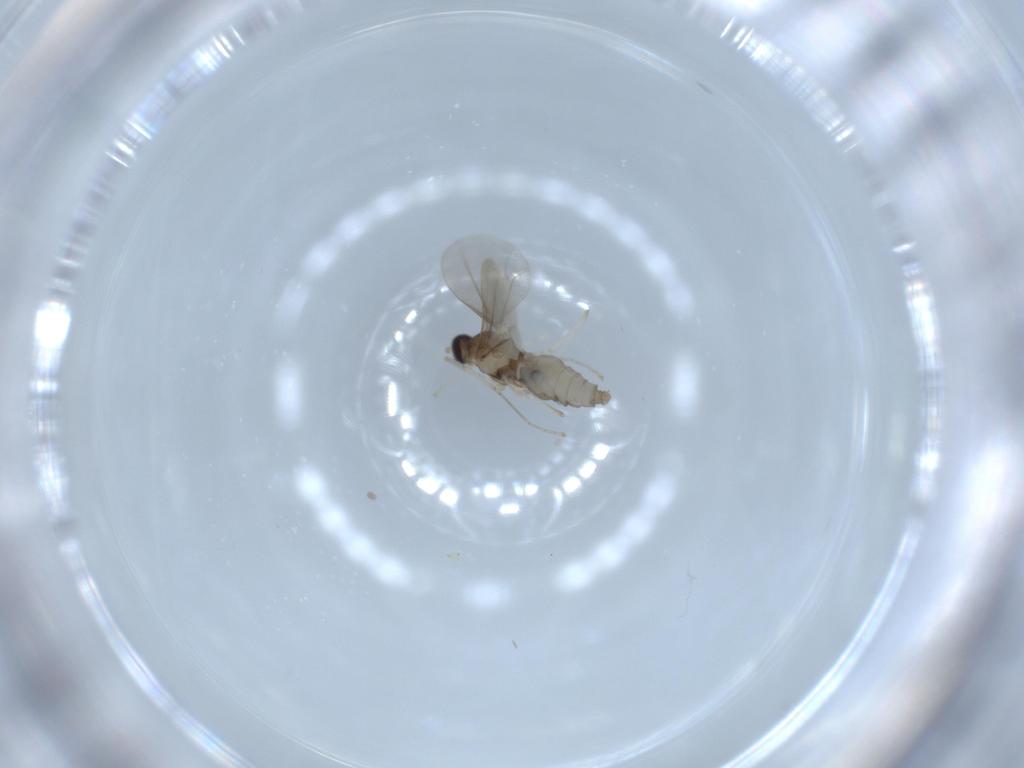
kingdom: Animalia
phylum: Arthropoda
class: Insecta
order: Diptera
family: Cecidomyiidae
